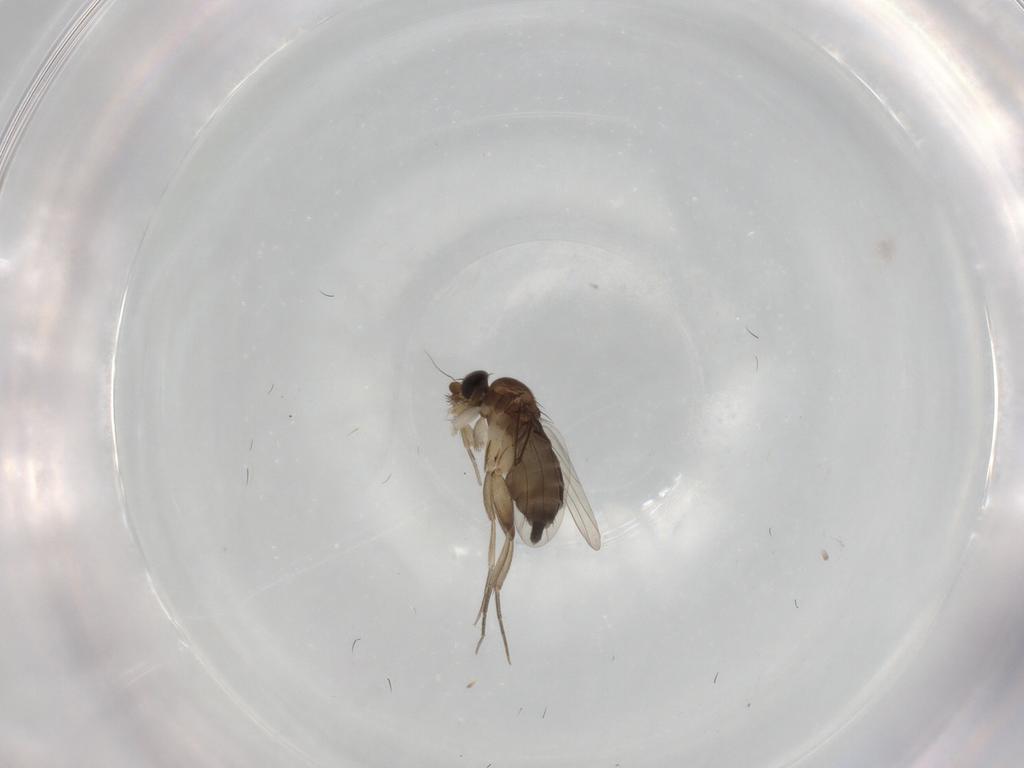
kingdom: Animalia
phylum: Arthropoda
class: Insecta
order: Diptera
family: Phoridae
